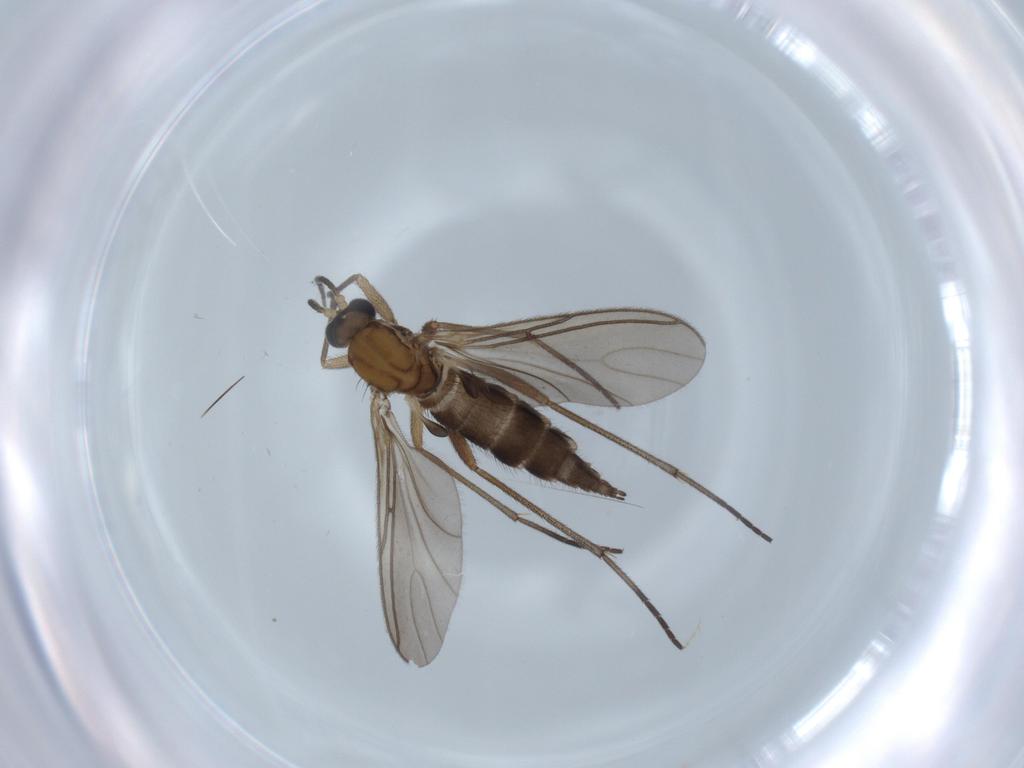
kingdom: Animalia
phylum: Arthropoda
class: Insecta
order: Diptera
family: Sciaridae
